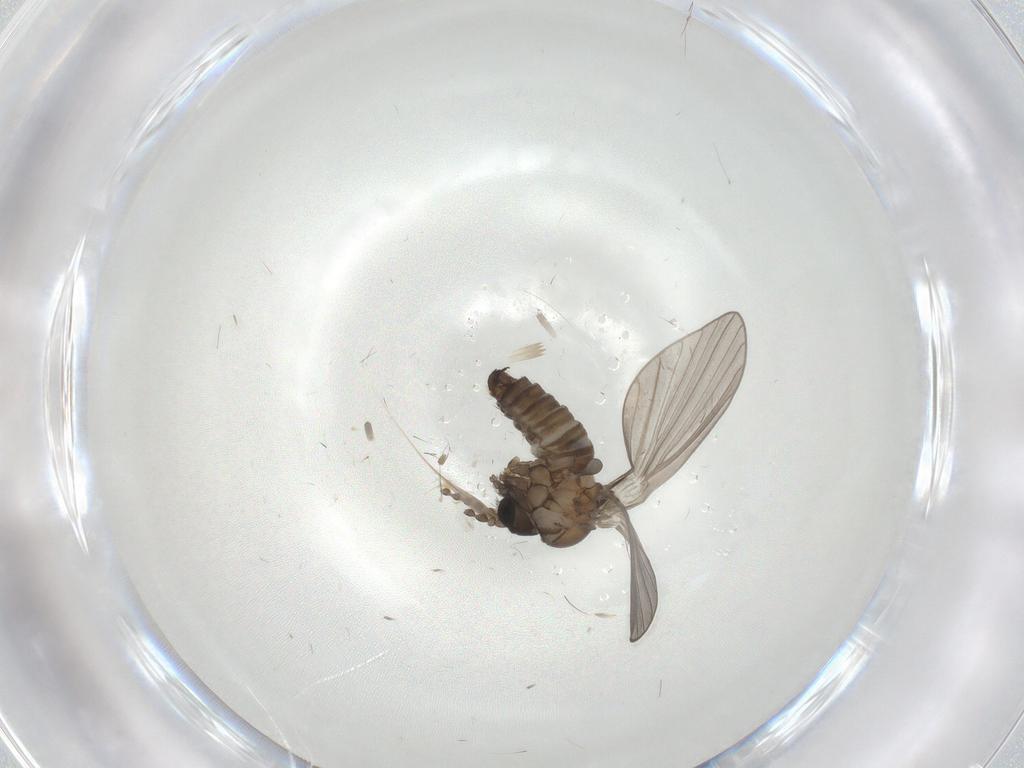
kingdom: Animalia
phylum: Arthropoda
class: Insecta
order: Diptera
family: Psychodidae
